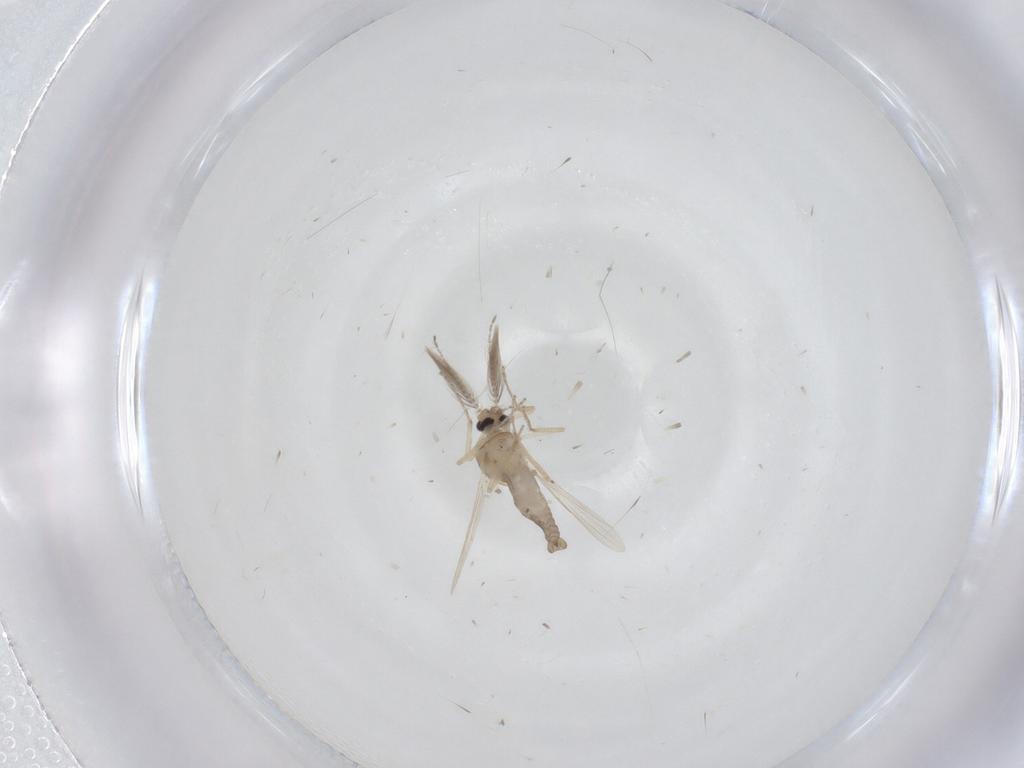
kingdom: Animalia
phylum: Arthropoda
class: Insecta
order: Diptera
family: Ceratopogonidae
